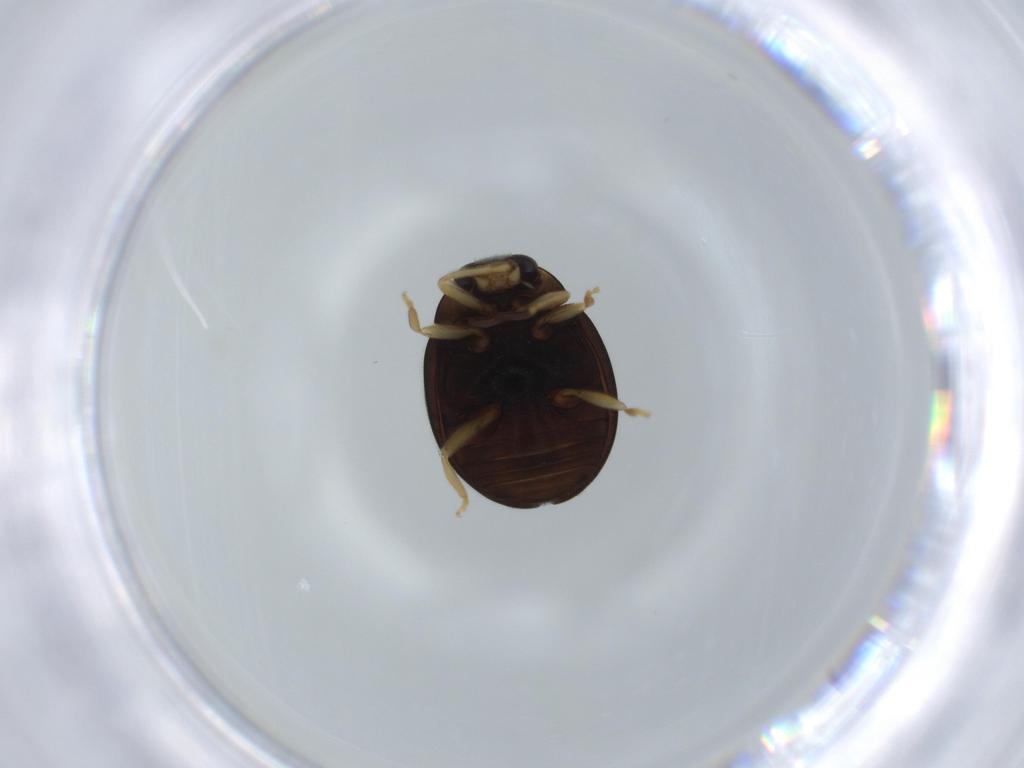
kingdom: Animalia
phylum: Arthropoda
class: Insecta
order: Coleoptera
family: Coccinellidae
